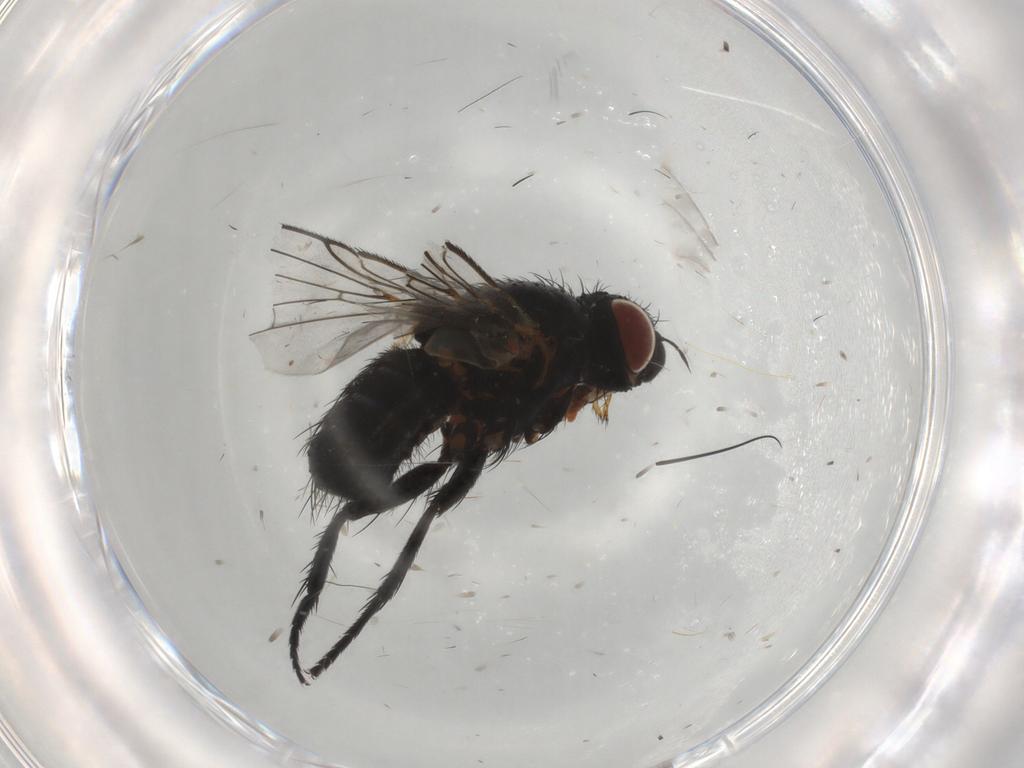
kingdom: Animalia
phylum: Arthropoda
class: Insecta
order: Diptera
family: Tachinidae
